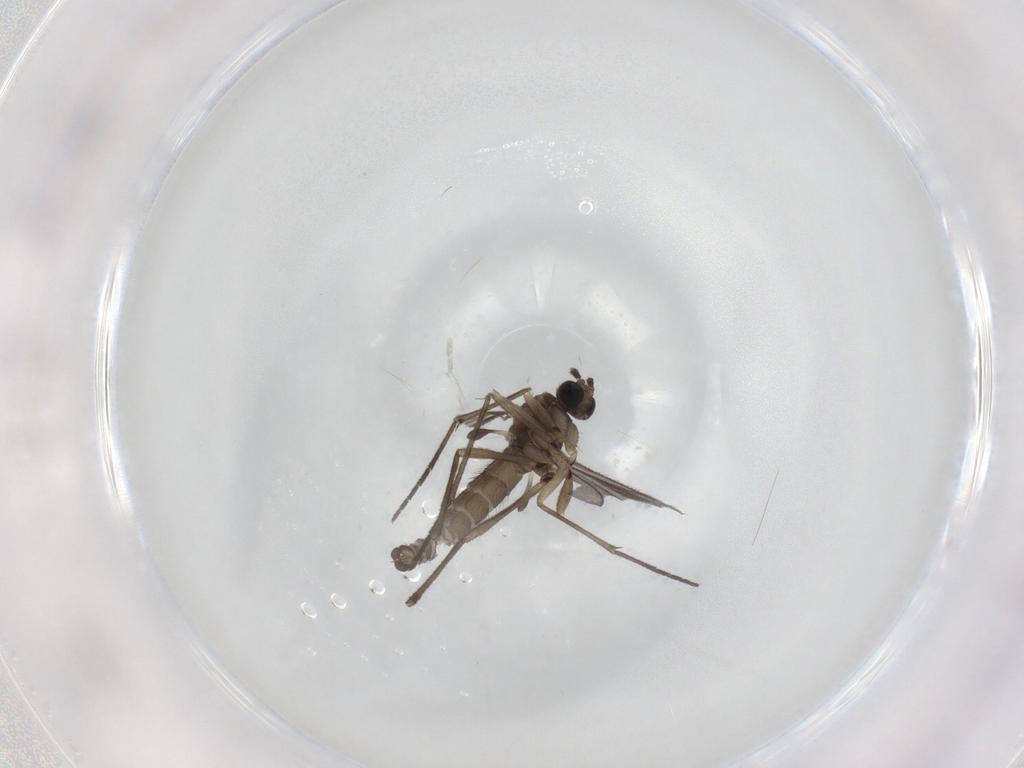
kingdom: Animalia
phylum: Arthropoda
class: Insecta
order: Diptera
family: Sciaridae
